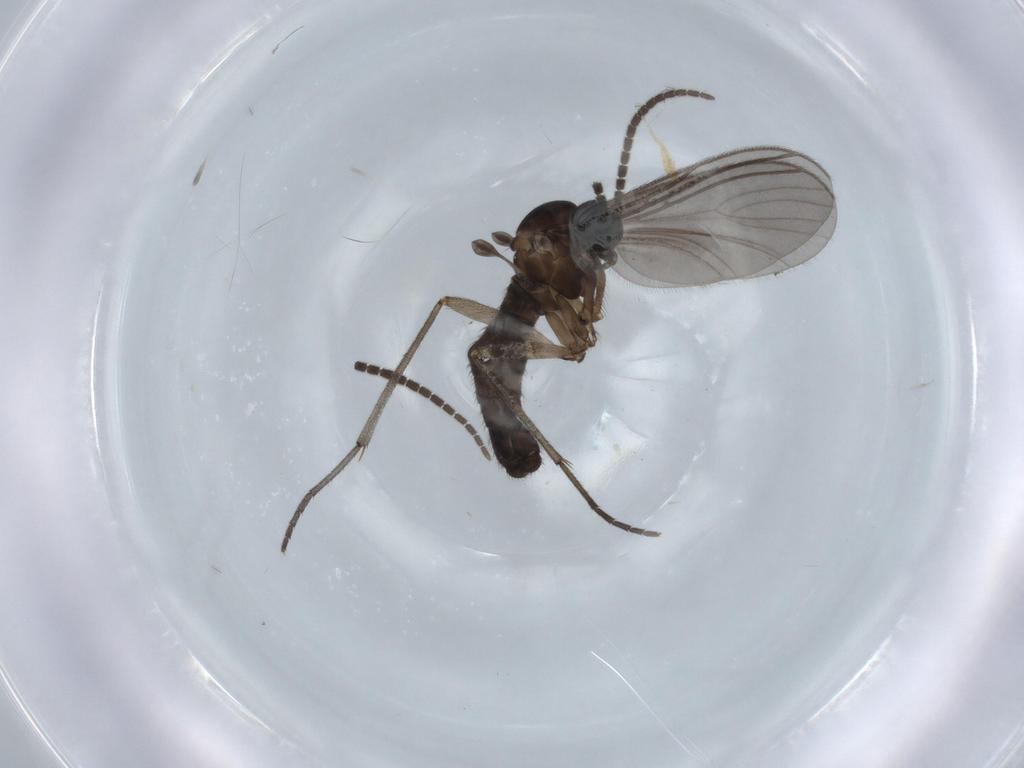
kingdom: Animalia
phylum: Arthropoda
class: Insecta
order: Diptera
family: Sciaridae
